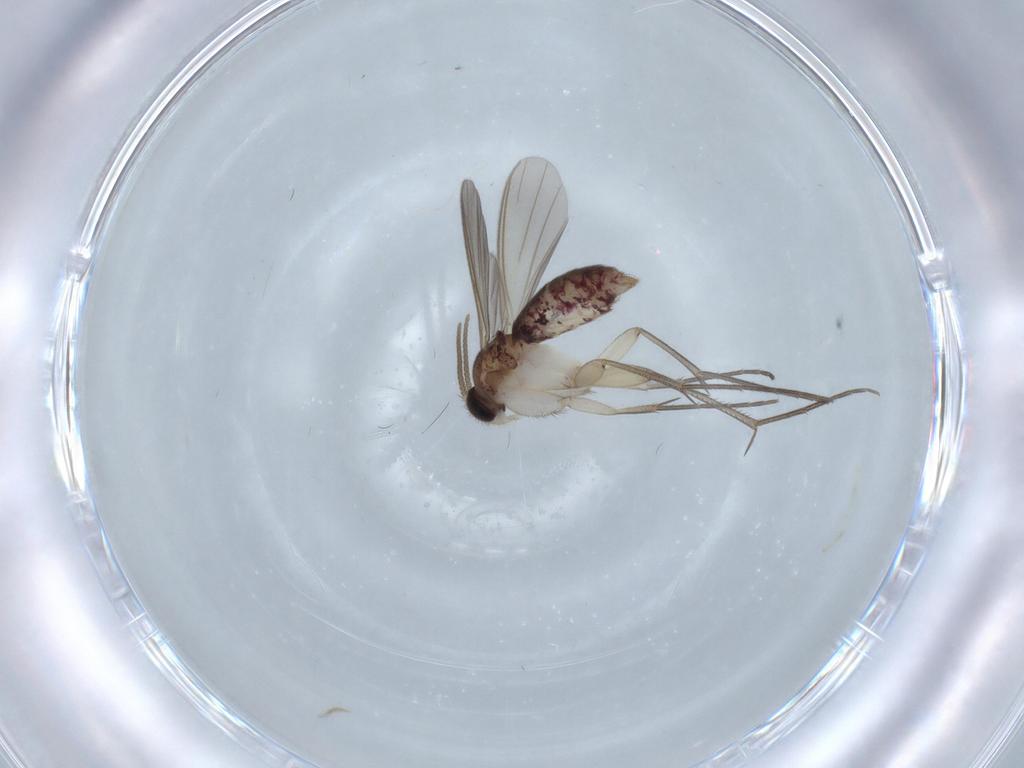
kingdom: Animalia
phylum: Arthropoda
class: Insecta
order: Diptera
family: Mycetophilidae
